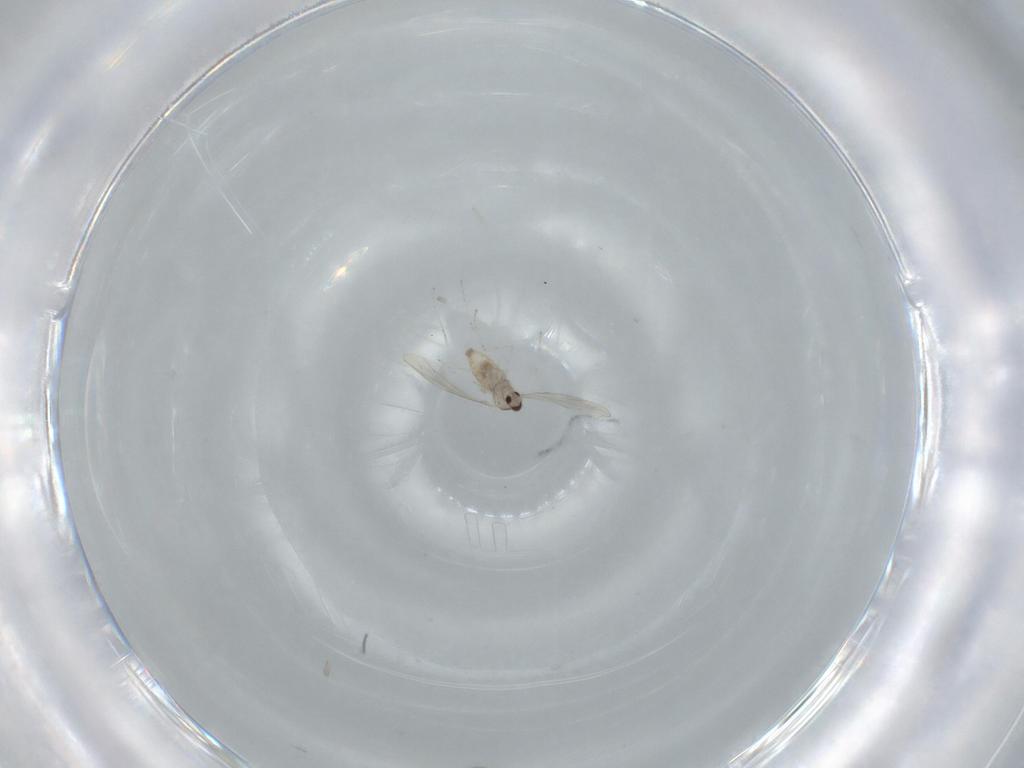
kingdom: Animalia
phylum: Arthropoda
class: Insecta
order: Diptera
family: Cecidomyiidae
